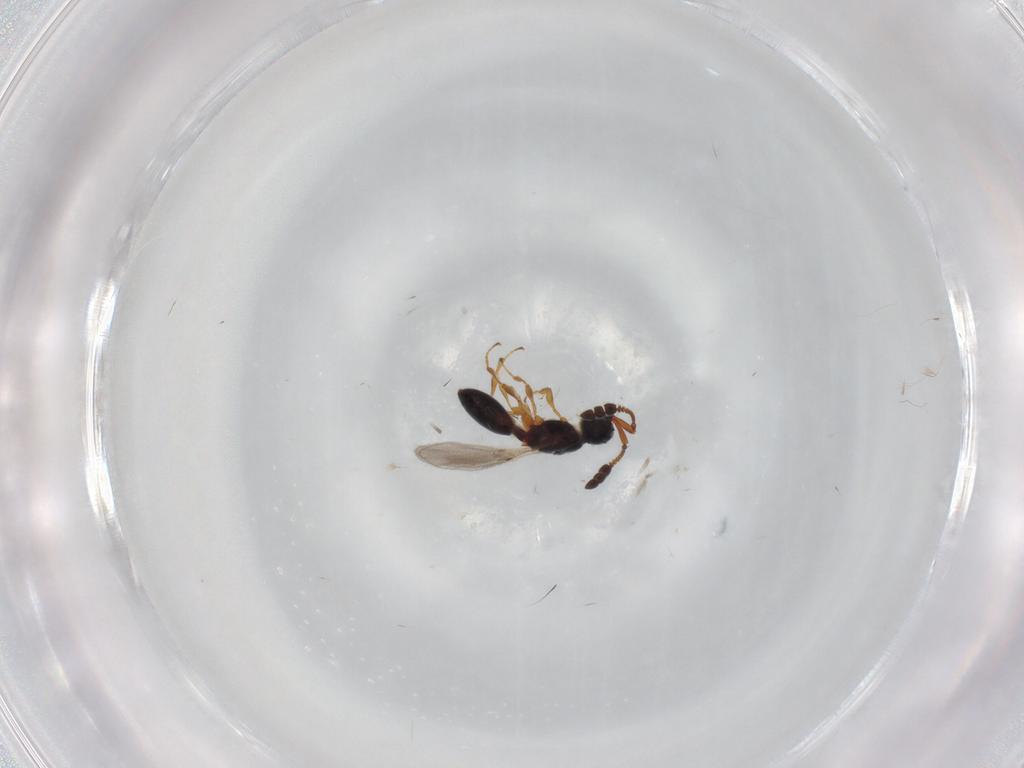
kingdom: Animalia
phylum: Arthropoda
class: Insecta
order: Hymenoptera
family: Diapriidae
